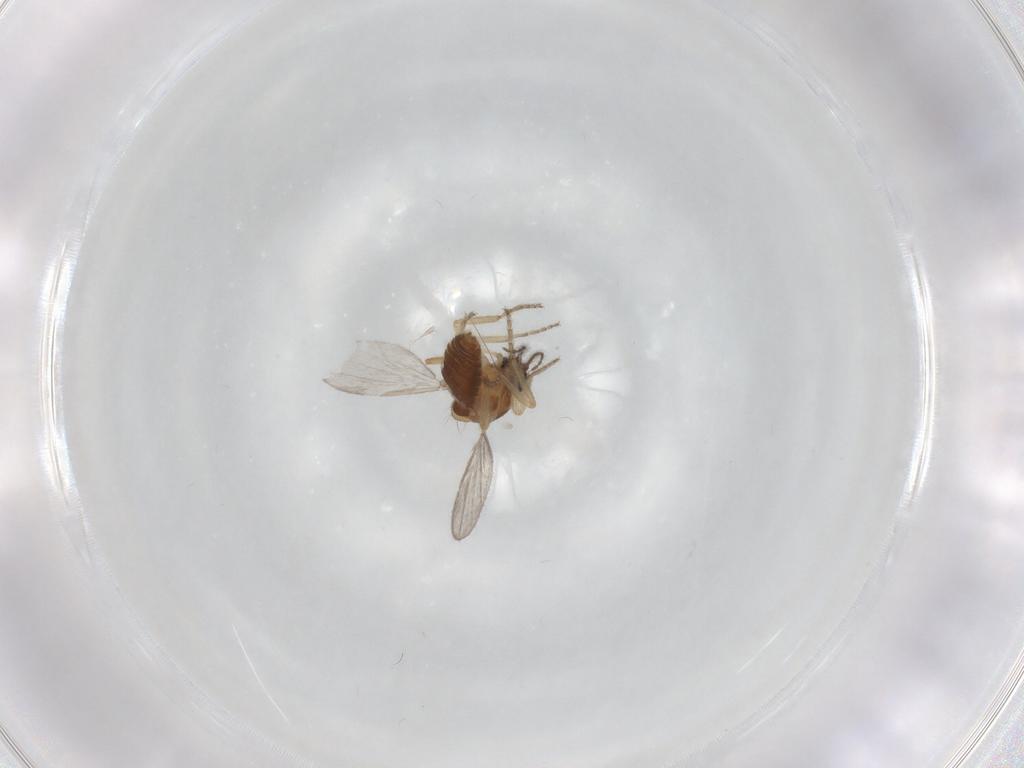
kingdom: Animalia
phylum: Arthropoda
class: Insecta
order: Diptera
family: Ceratopogonidae
